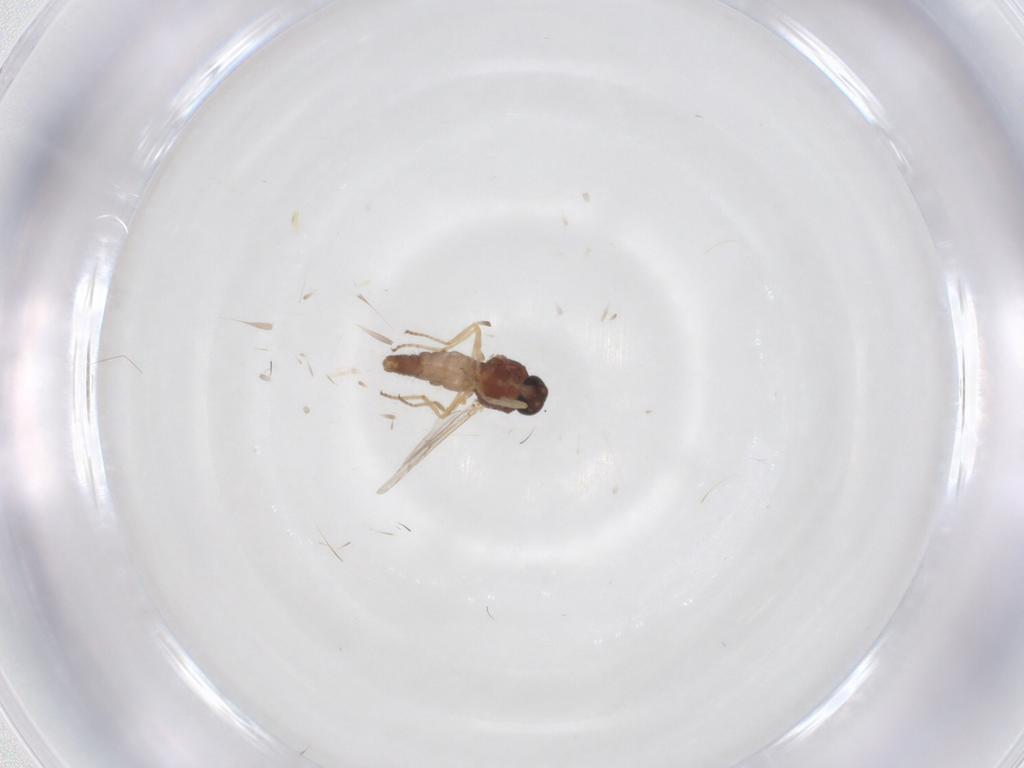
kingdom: Animalia
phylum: Arthropoda
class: Insecta
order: Diptera
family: Ceratopogonidae
